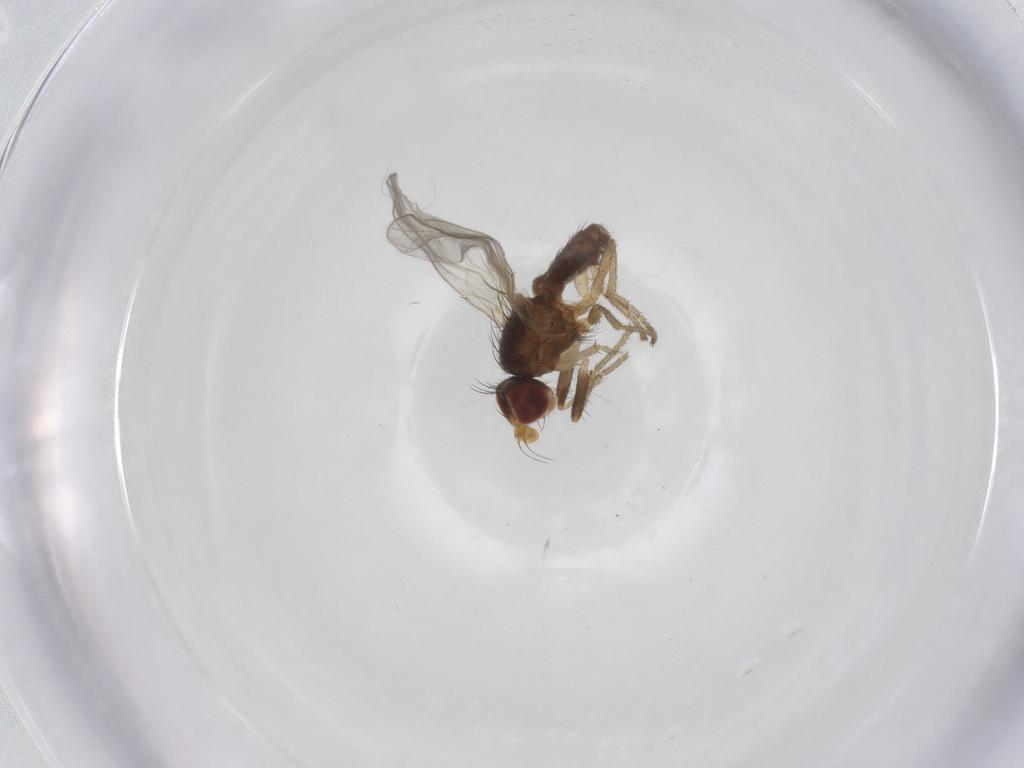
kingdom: Animalia
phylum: Arthropoda
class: Insecta
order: Diptera
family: Heleomyzidae
